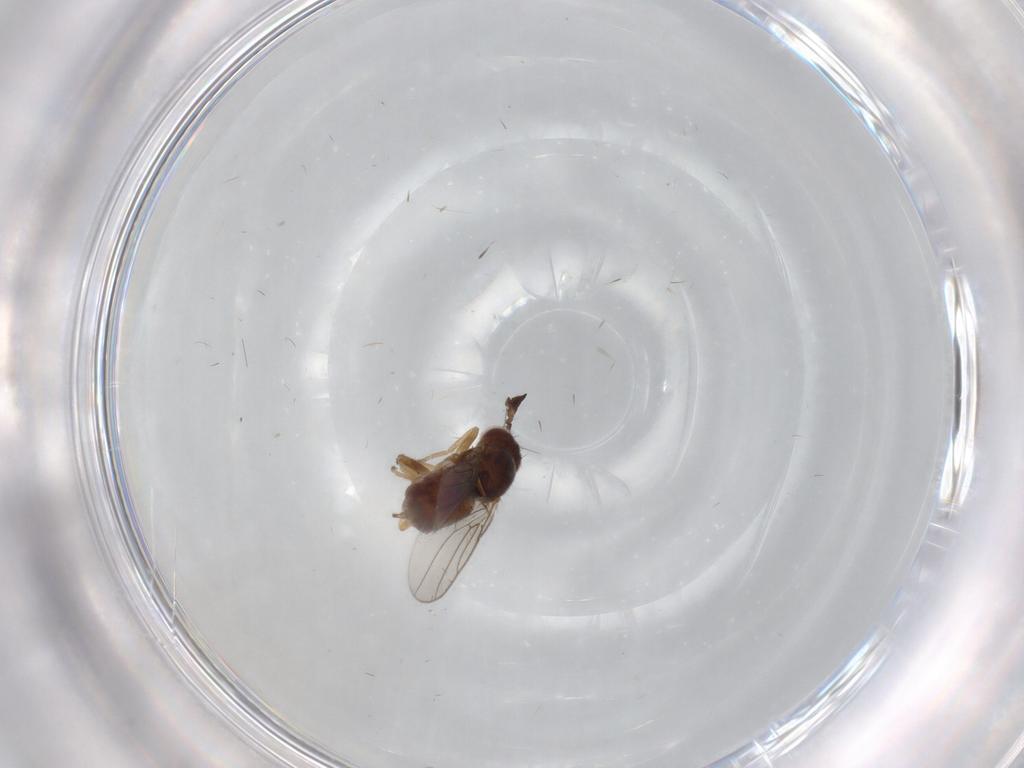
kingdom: Animalia
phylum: Arthropoda
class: Insecta
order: Diptera
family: Chloropidae
